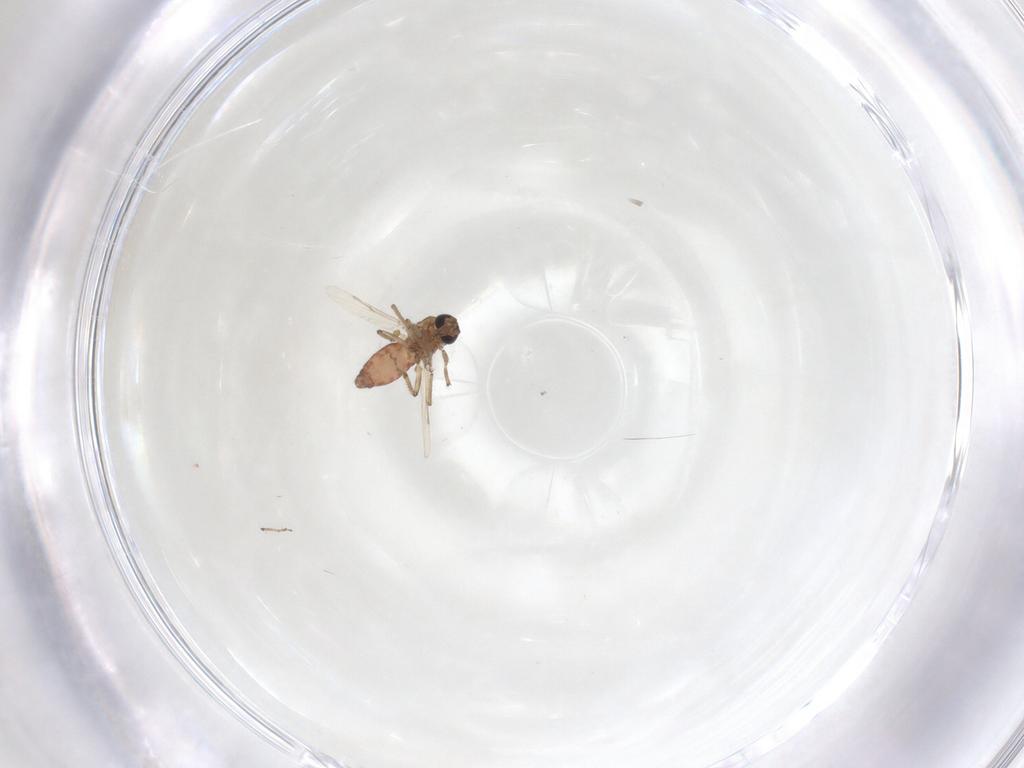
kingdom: Animalia
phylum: Arthropoda
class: Insecta
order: Diptera
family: Ceratopogonidae
